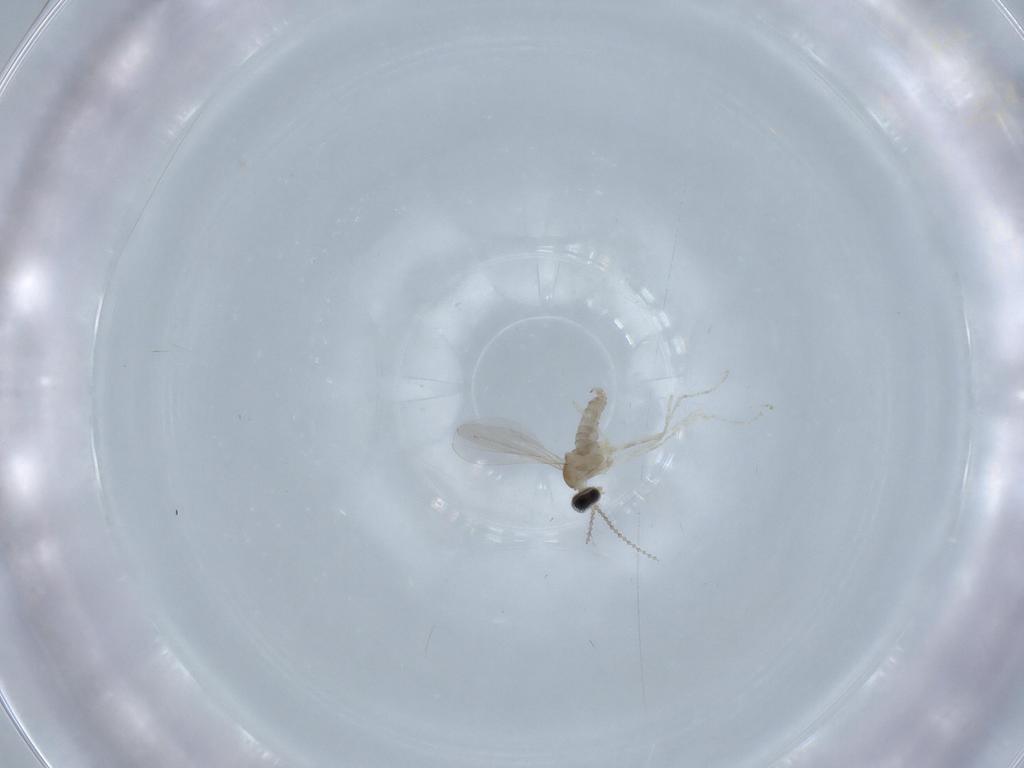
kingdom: Animalia
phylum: Arthropoda
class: Insecta
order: Diptera
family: Cecidomyiidae
